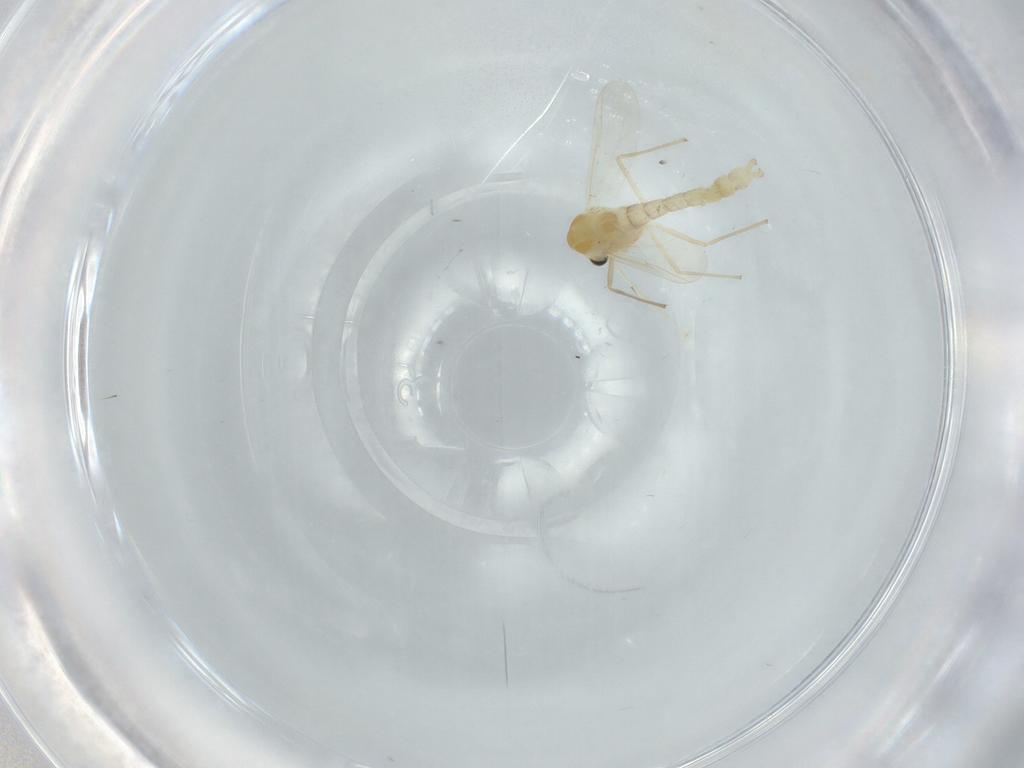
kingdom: Animalia
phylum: Arthropoda
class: Insecta
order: Diptera
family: Chironomidae
